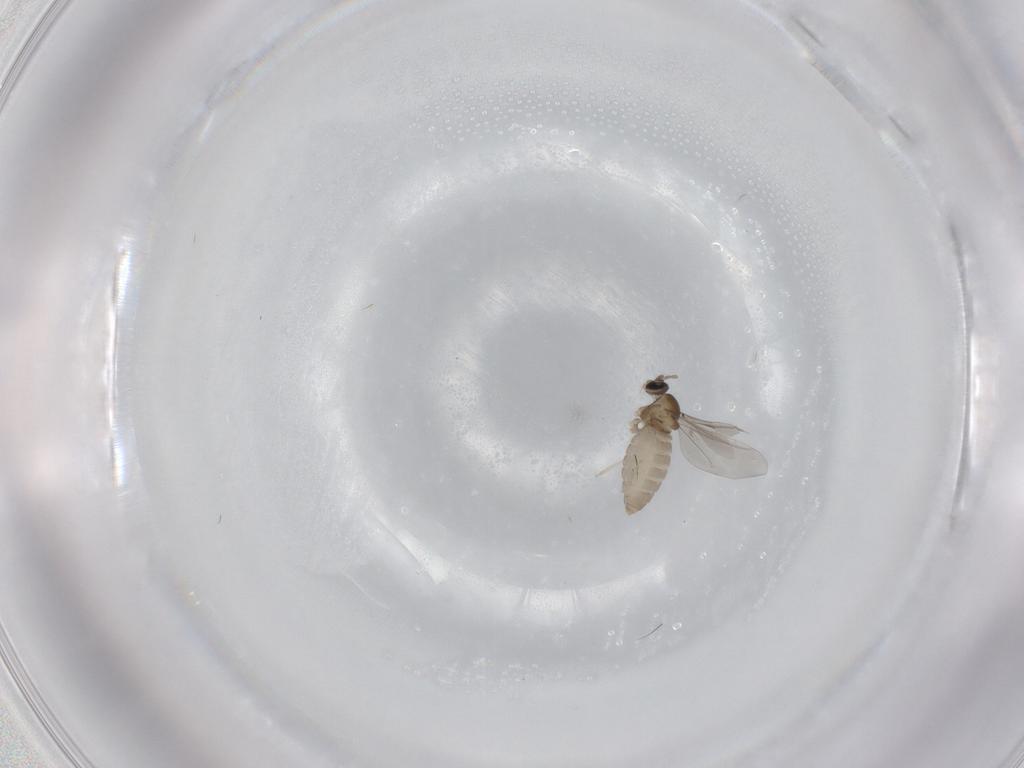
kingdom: Animalia
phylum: Arthropoda
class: Insecta
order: Diptera
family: Cecidomyiidae
